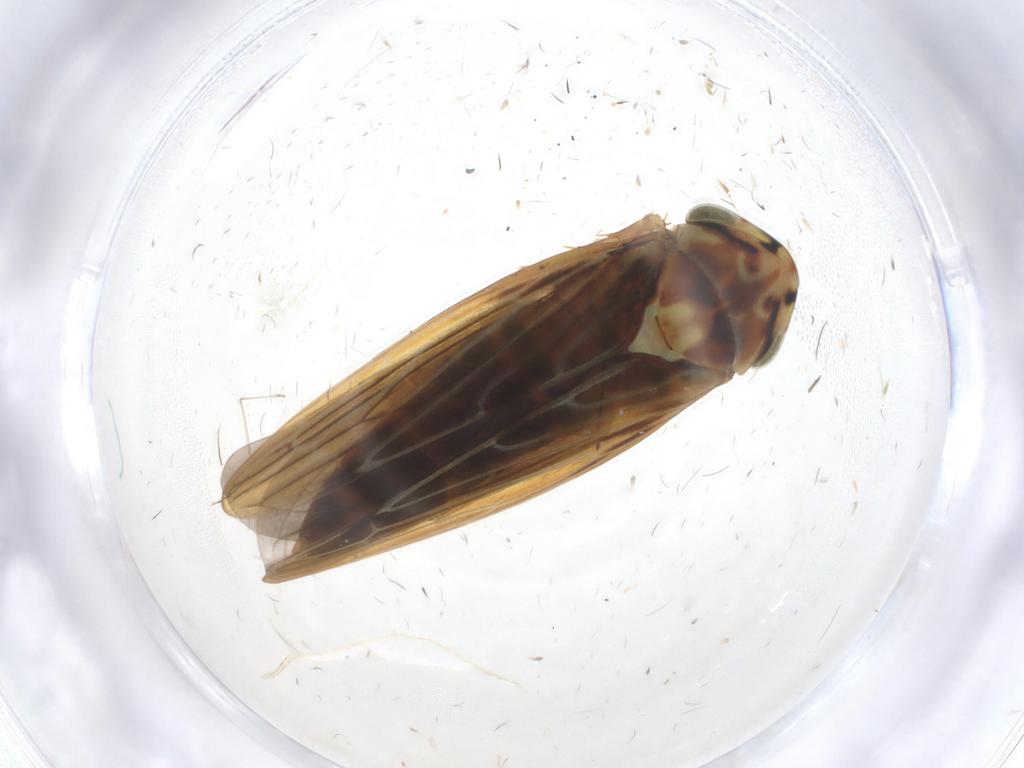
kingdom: Animalia
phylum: Arthropoda
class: Insecta
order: Hemiptera
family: Cicadellidae
